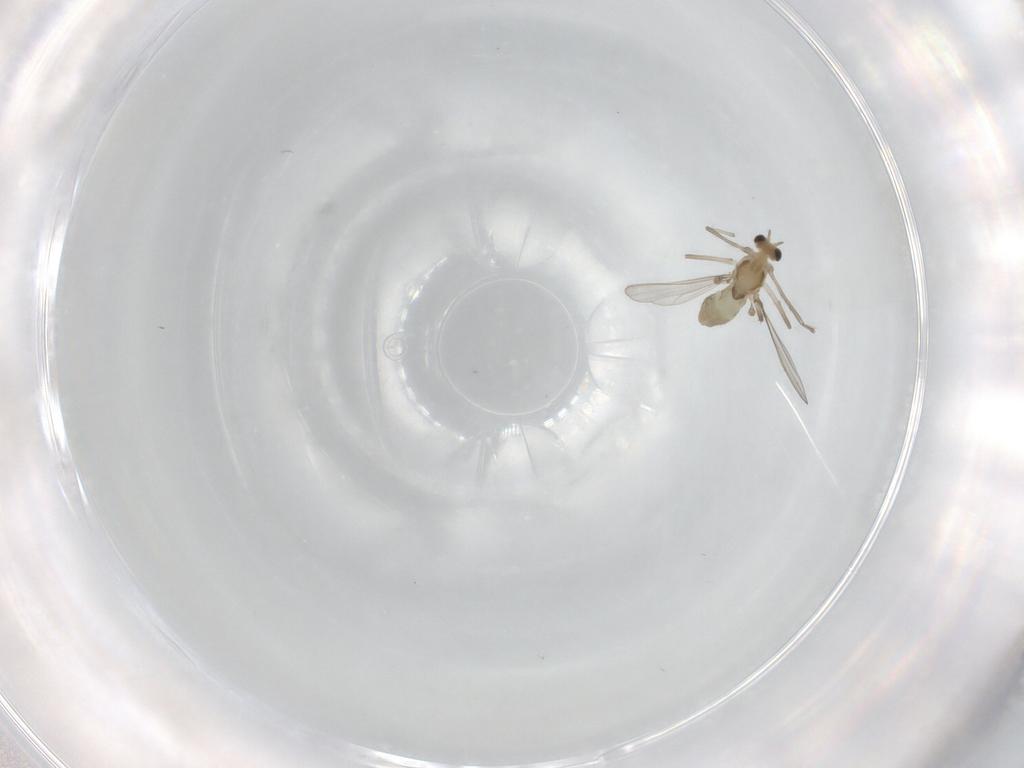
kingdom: Animalia
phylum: Arthropoda
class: Insecta
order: Diptera
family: Chironomidae
